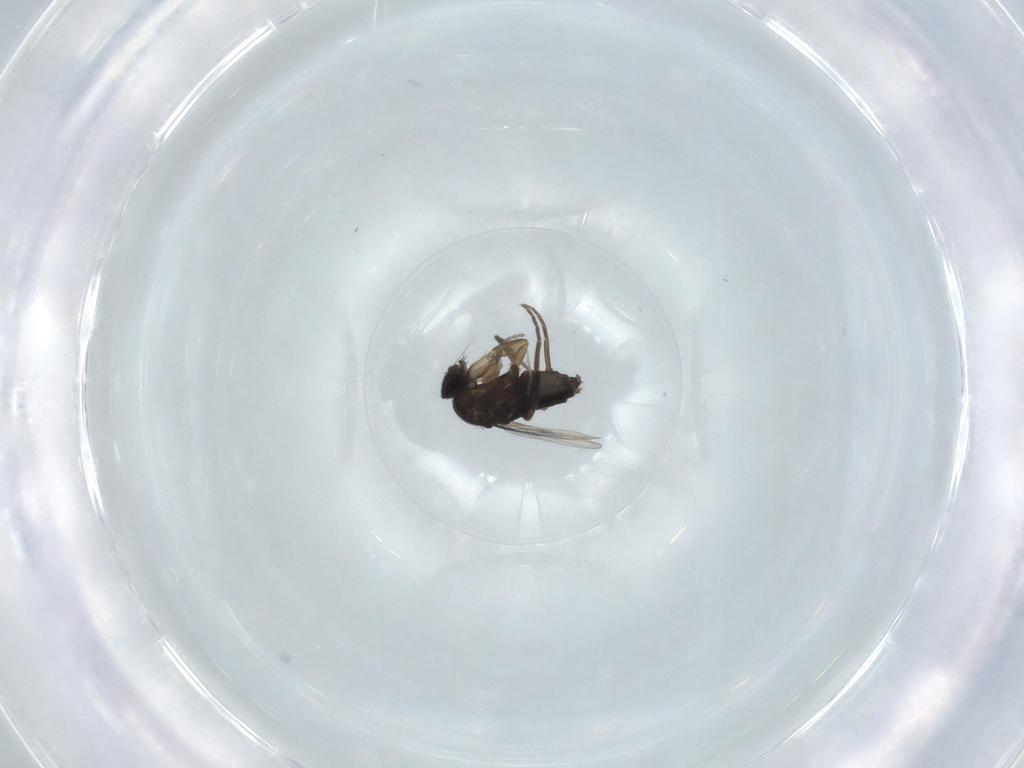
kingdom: Animalia
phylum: Arthropoda
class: Insecta
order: Diptera
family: Phoridae
